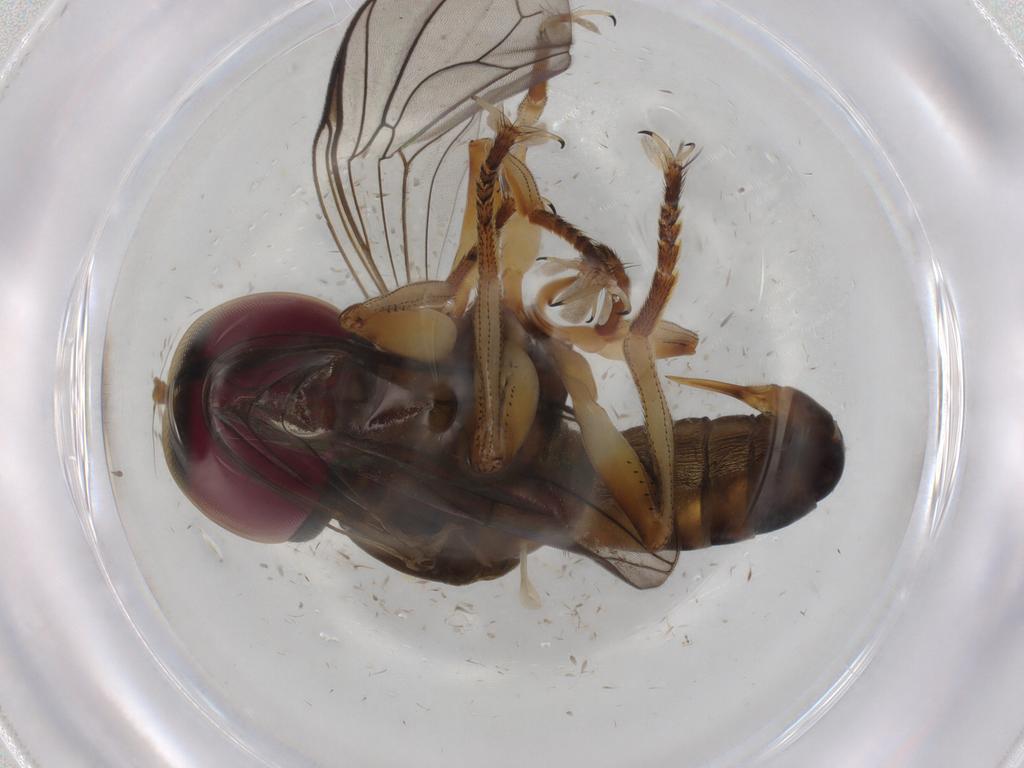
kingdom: Animalia
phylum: Arthropoda
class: Insecta
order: Diptera
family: Pipunculidae
